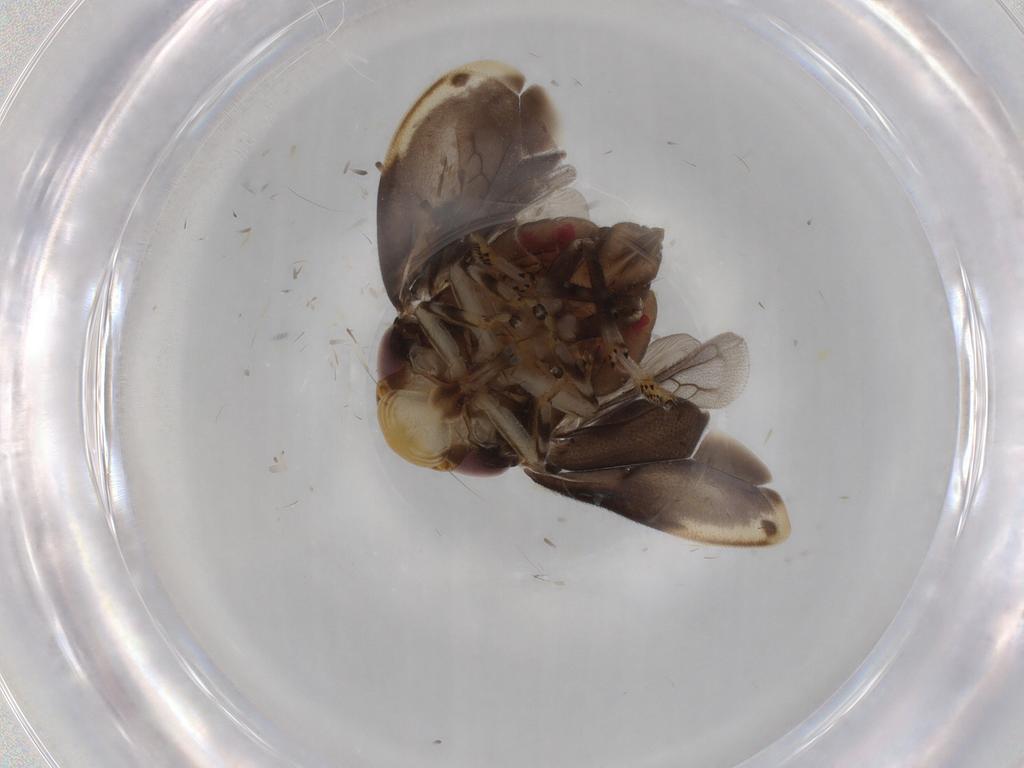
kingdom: Animalia
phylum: Arthropoda
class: Insecta
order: Hemiptera
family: Clastopteridae
